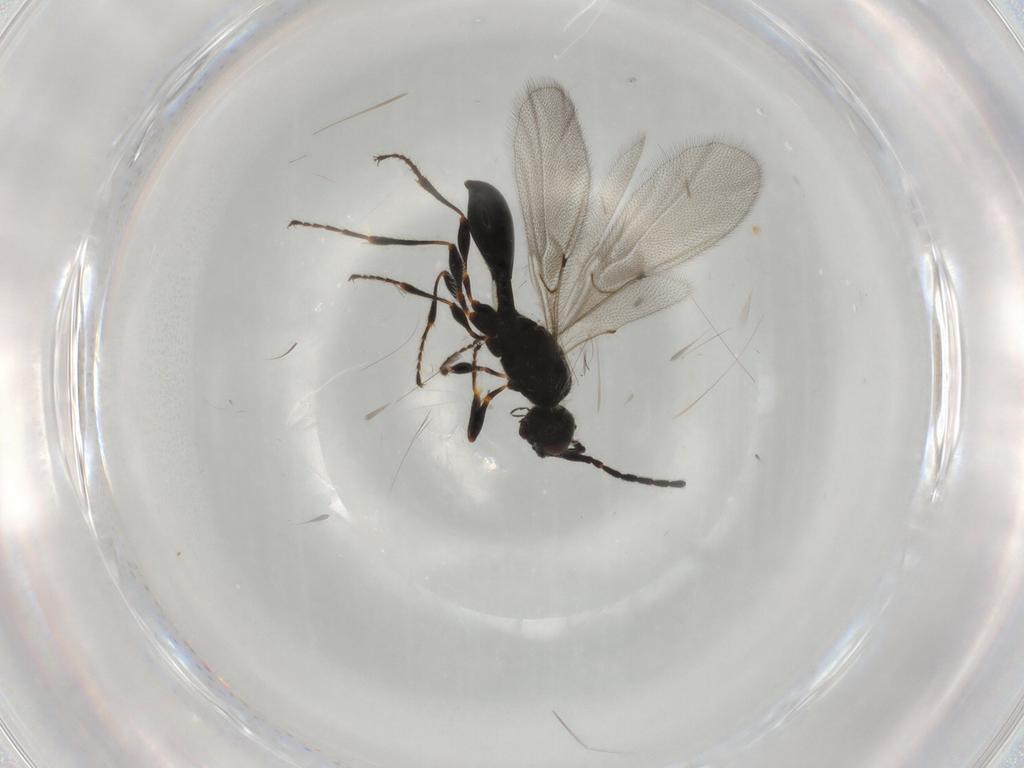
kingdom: Animalia
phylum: Arthropoda
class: Insecta
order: Hymenoptera
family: Diapriidae
